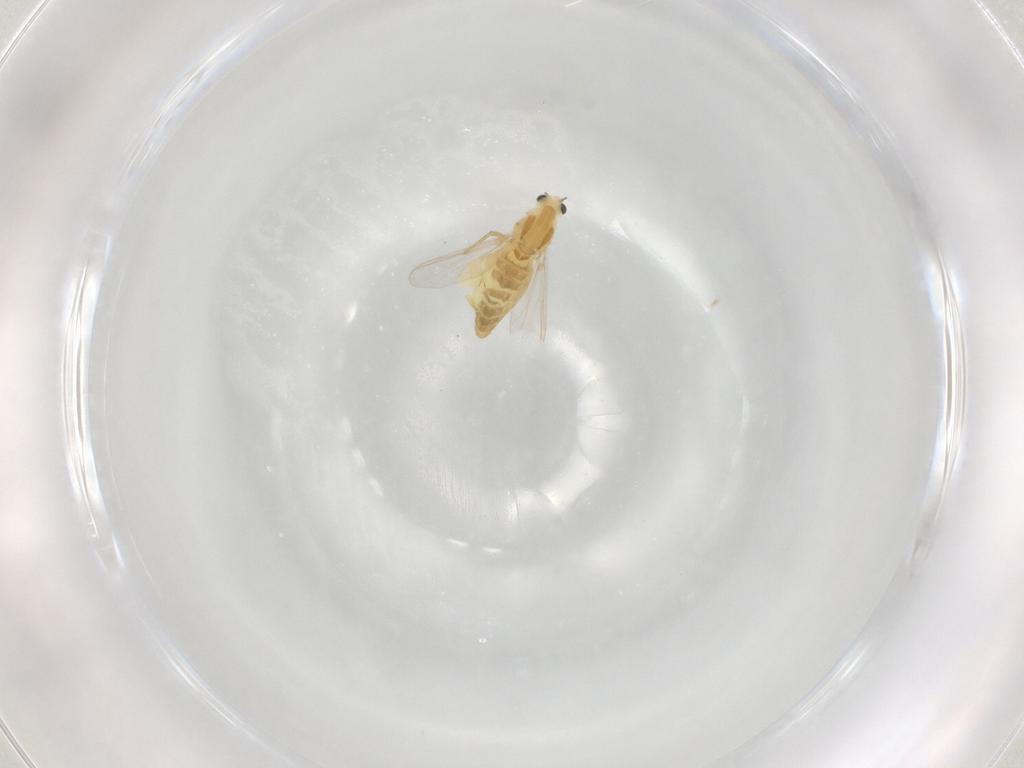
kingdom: Animalia
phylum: Arthropoda
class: Insecta
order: Diptera
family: Chironomidae
